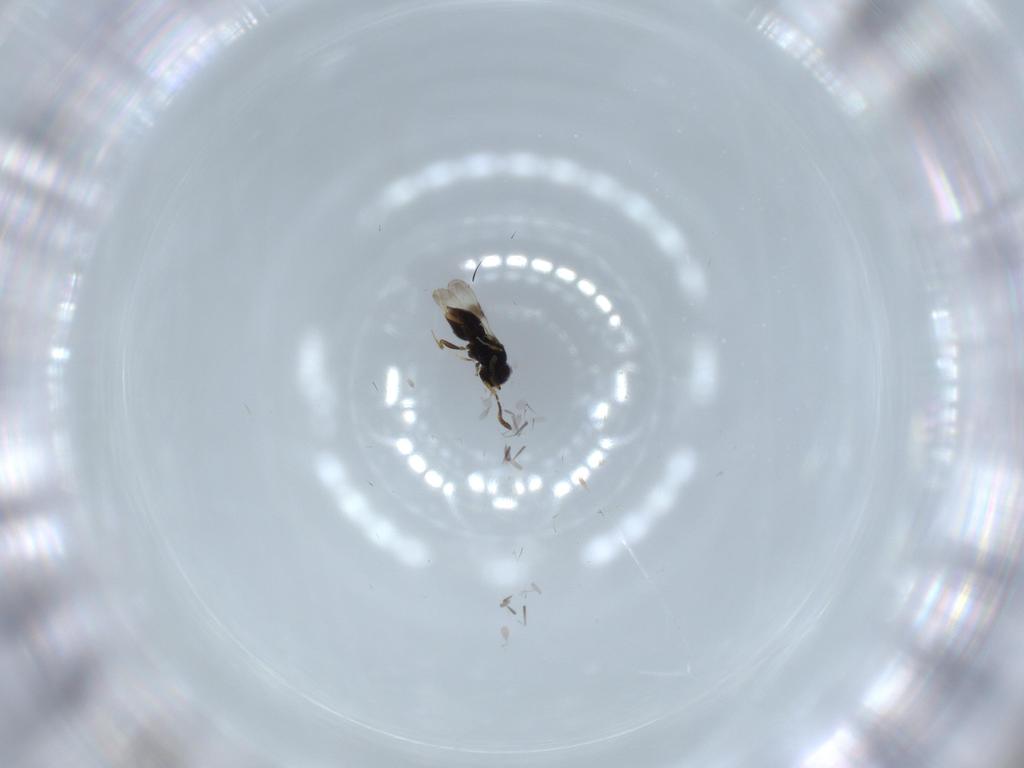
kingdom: Animalia
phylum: Arthropoda
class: Insecta
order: Hymenoptera
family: Ceraphronidae
